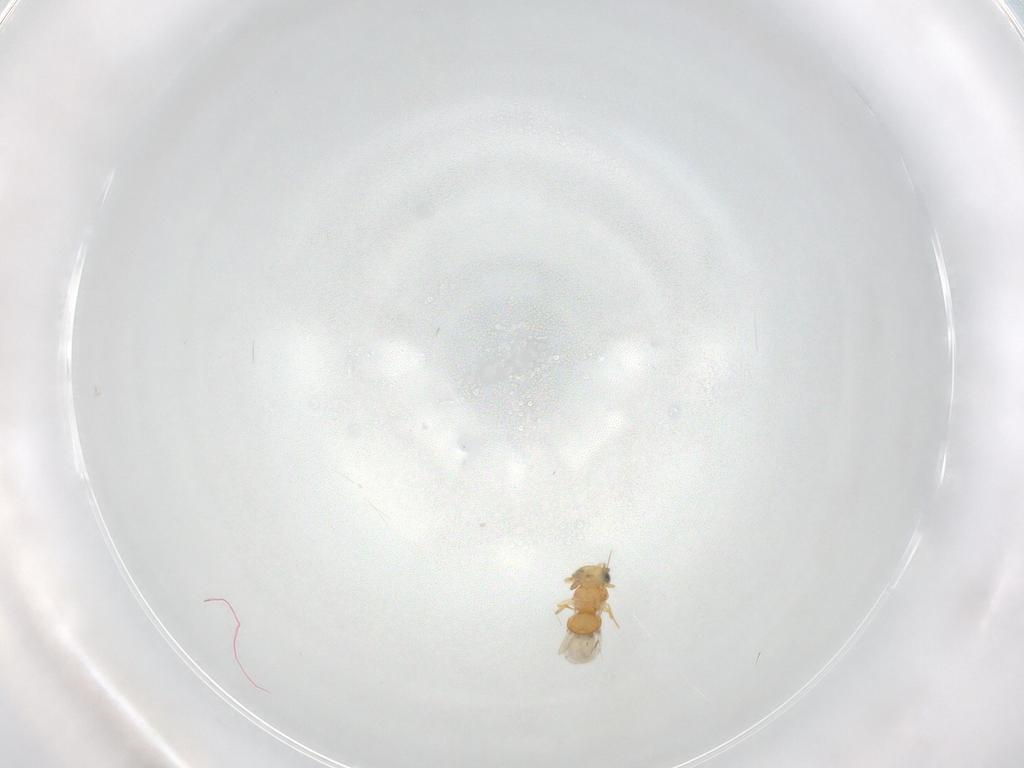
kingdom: Animalia
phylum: Arthropoda
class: Insecta
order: Hymenoptera
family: Scelionidae
